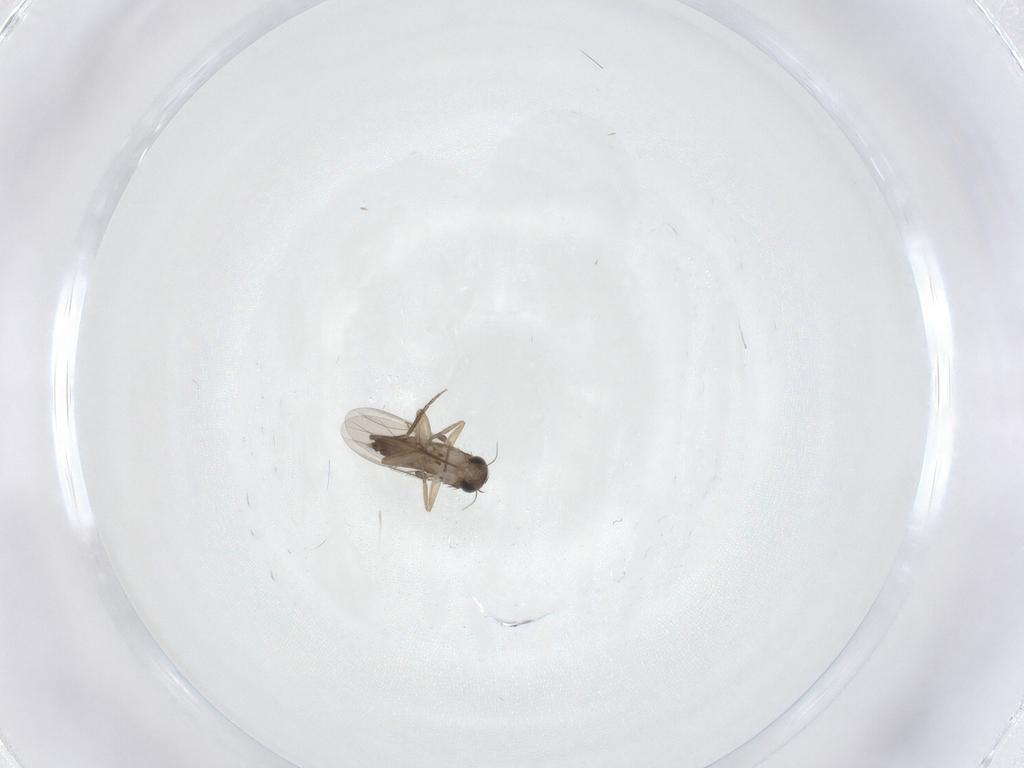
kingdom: Animalia
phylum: Arthropoda
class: Insecta
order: Diptera
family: Phoridae
